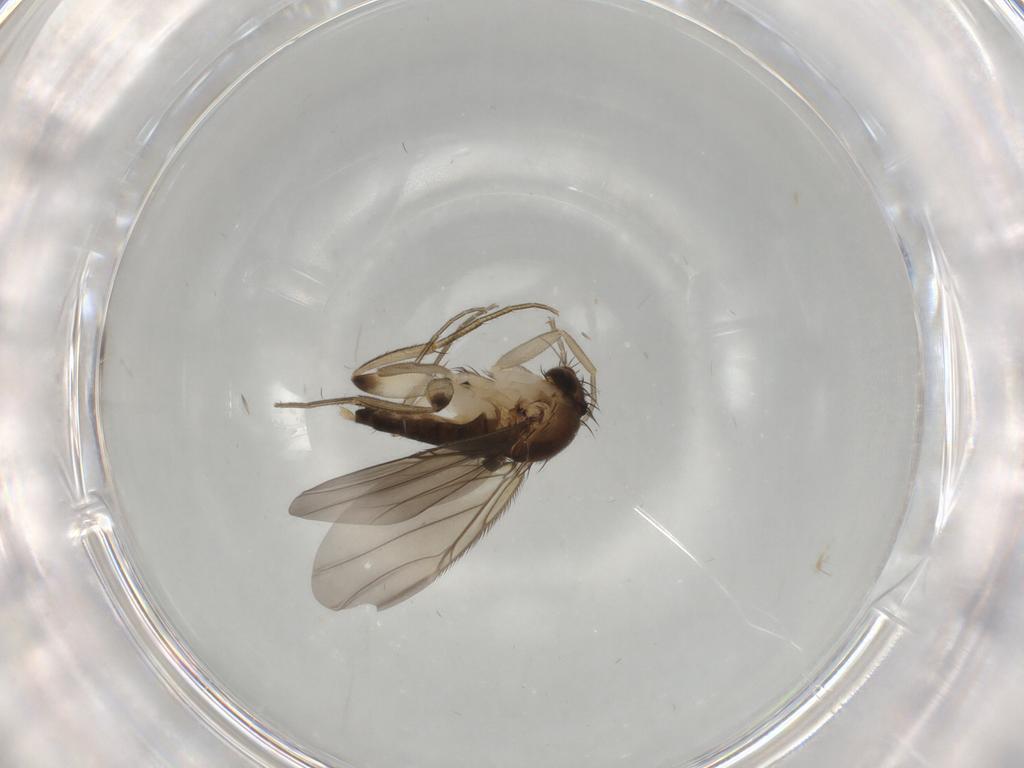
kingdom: Animalia
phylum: Arthropoda
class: Insecta
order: Diptera
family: Phoridae
